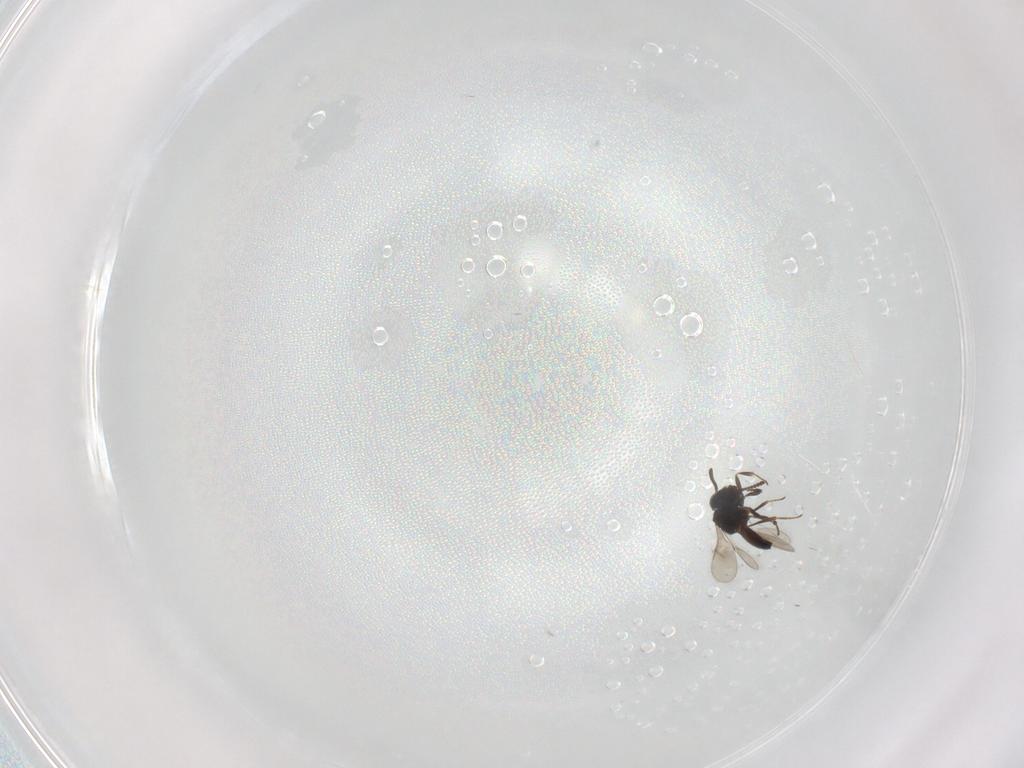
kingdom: Animalia
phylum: Arthropoda
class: Insecta
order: Hymenoptera
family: Scelionidae
